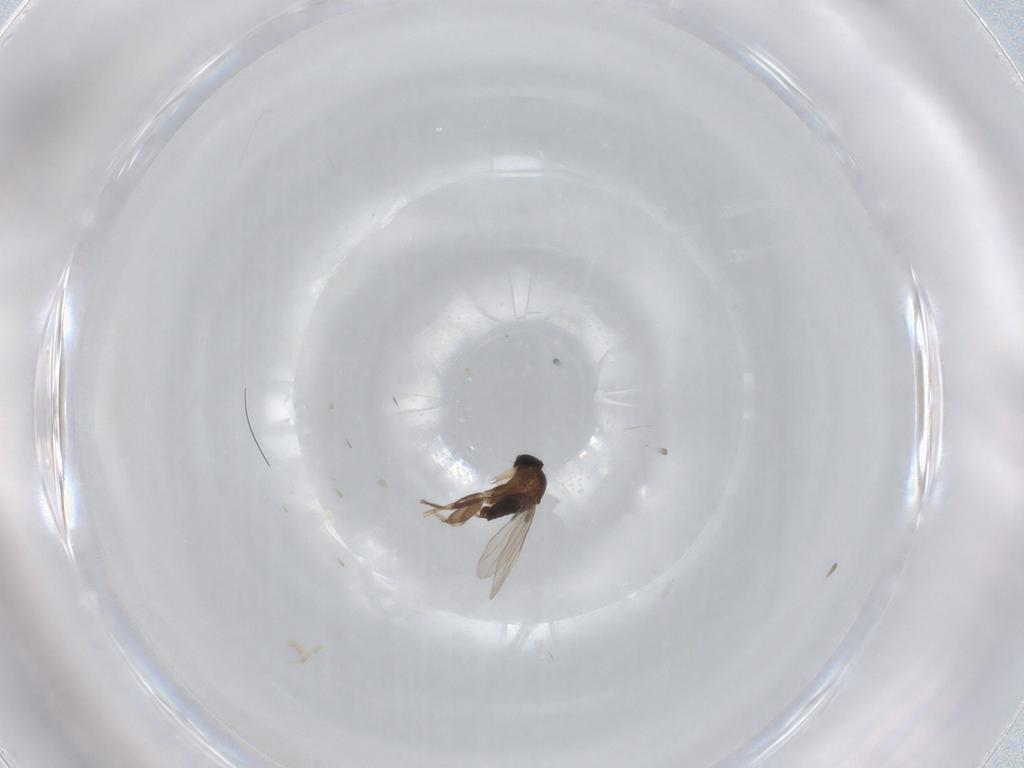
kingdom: Animalia
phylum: Arthropoda
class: Insecta
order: Diptera
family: Phoridae
